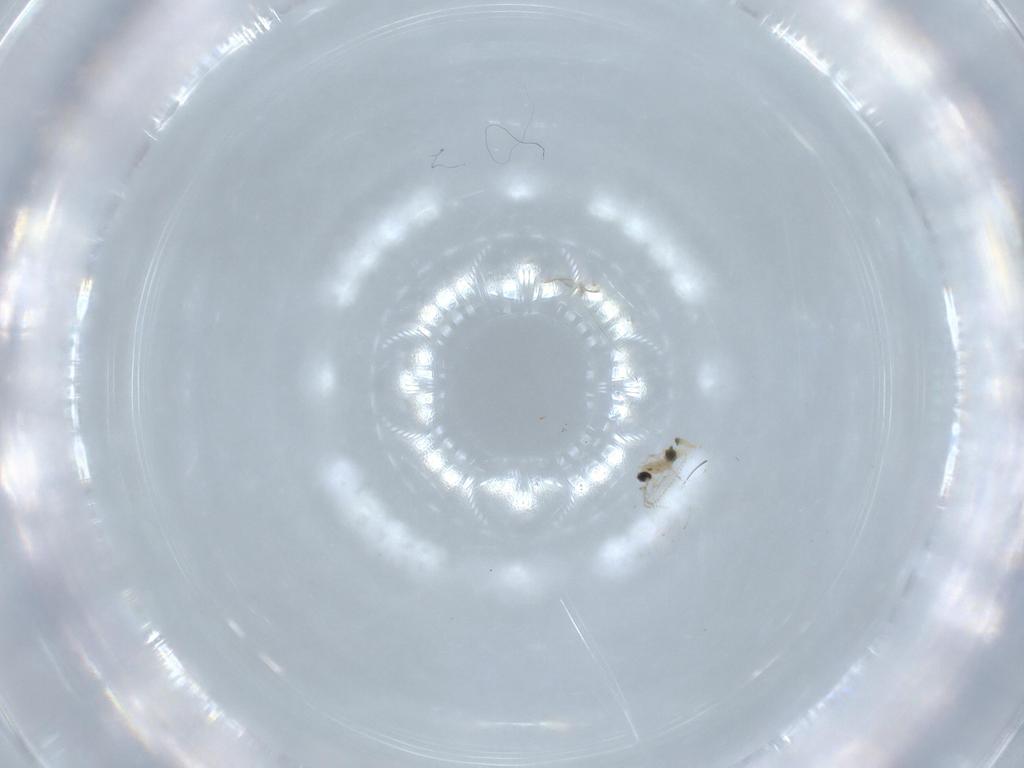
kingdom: Animalia
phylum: Arthropoda
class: Insecta
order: Diptera
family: Cecidomyiidae
